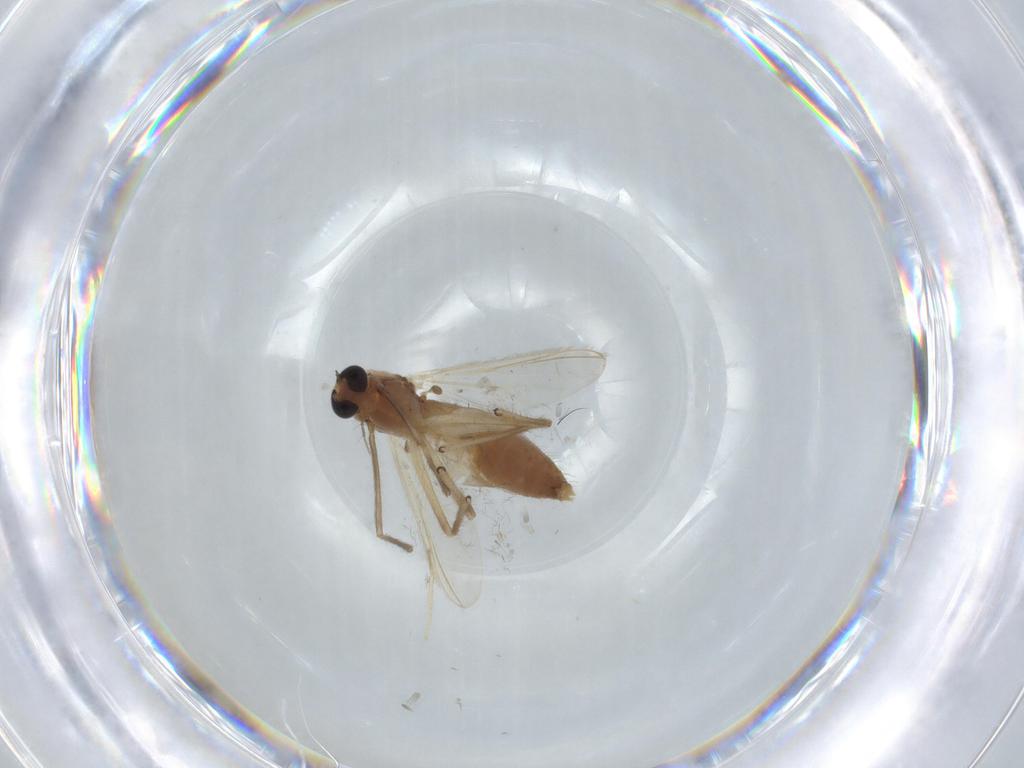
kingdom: Animalia
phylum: Arthropoda
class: Insecta
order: Diptera
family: Chironomidae
